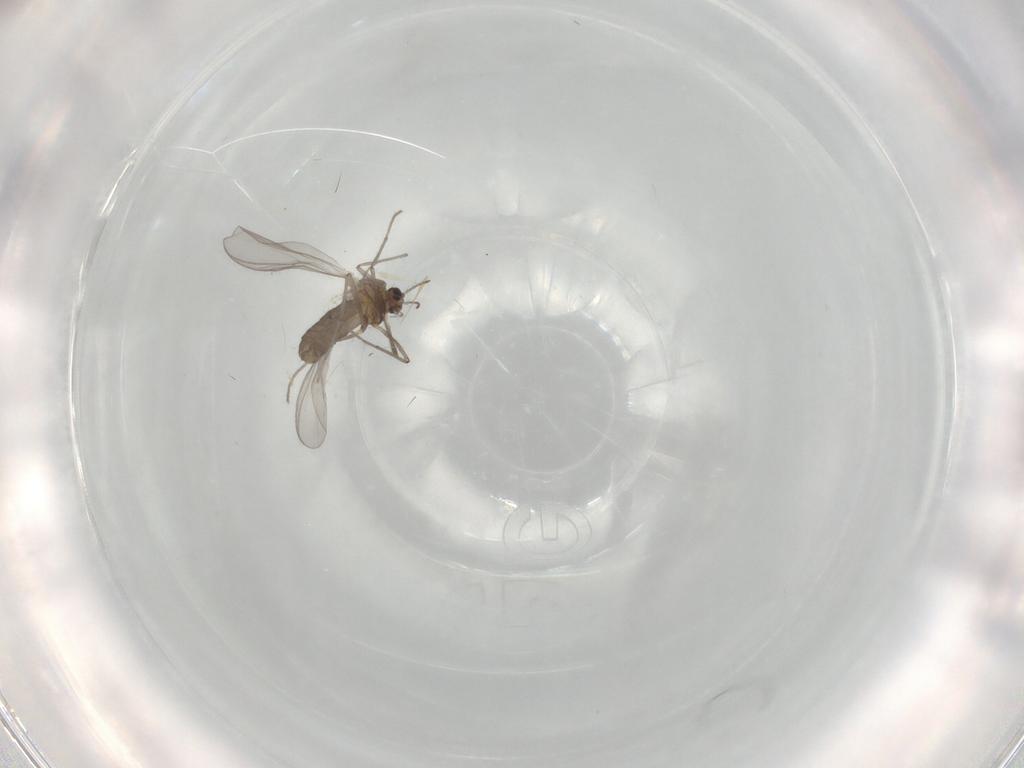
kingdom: Animalia
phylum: Arthropoda
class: Insecta
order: Diptera
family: Chironomidae
